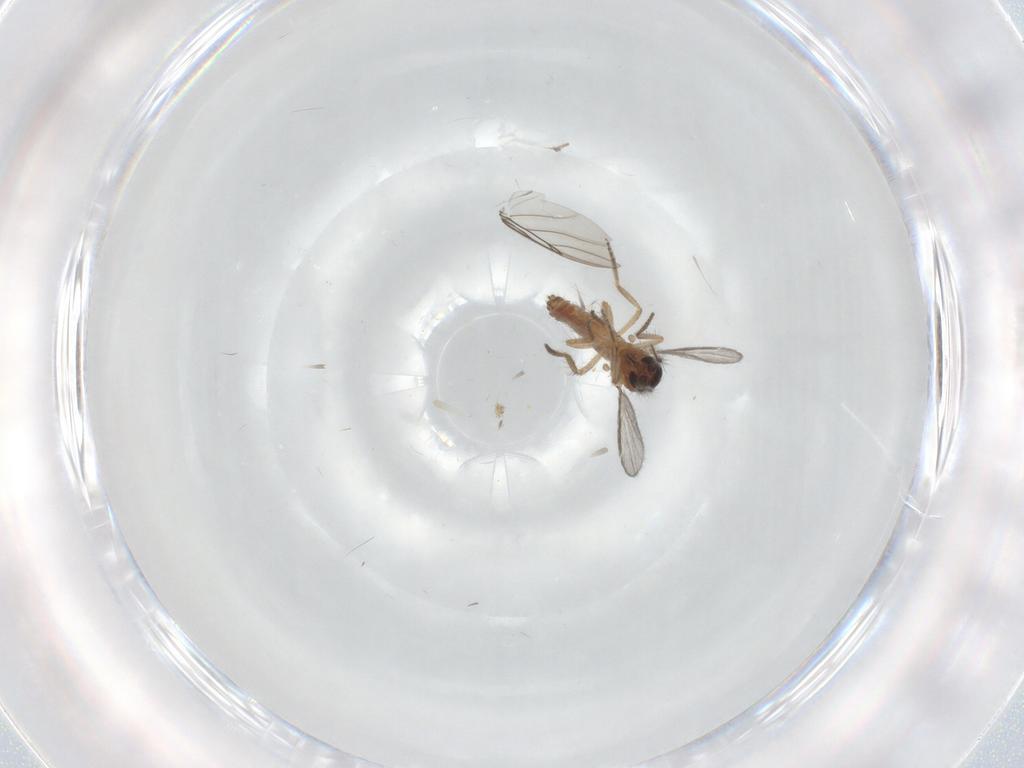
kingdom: Animalia
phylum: Arthropoda
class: Insecta
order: Diptera
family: Ceratopogonidae
